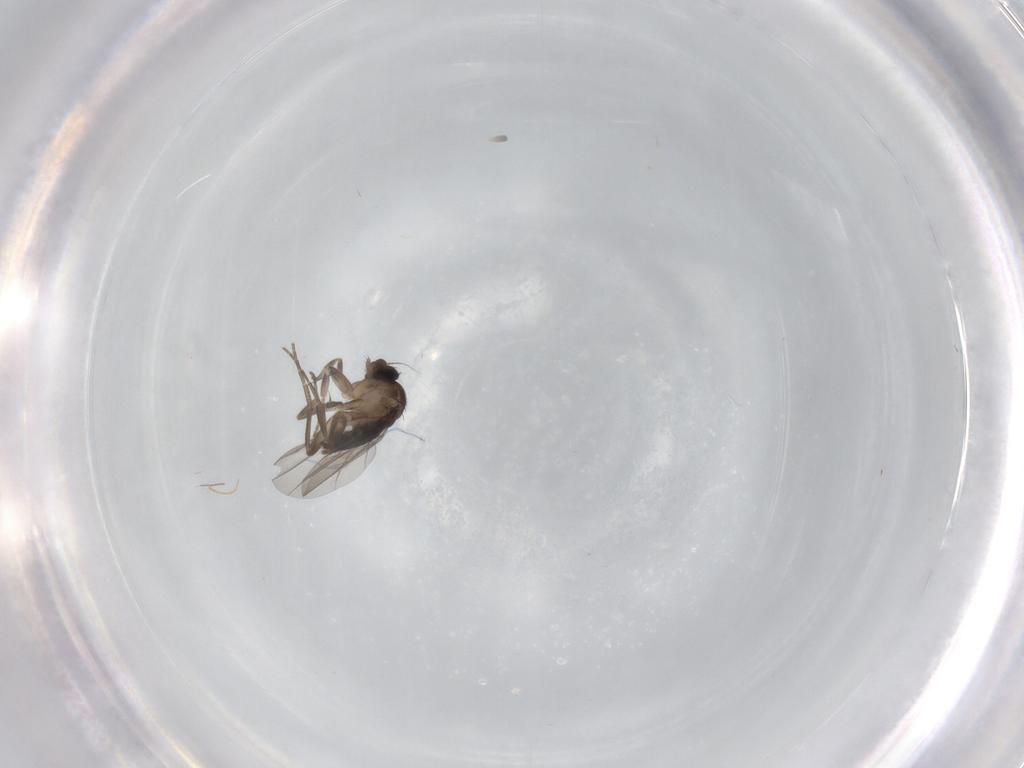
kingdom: Animalia
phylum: Arthropoda
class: Insecta
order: Diptera
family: Phoridae
